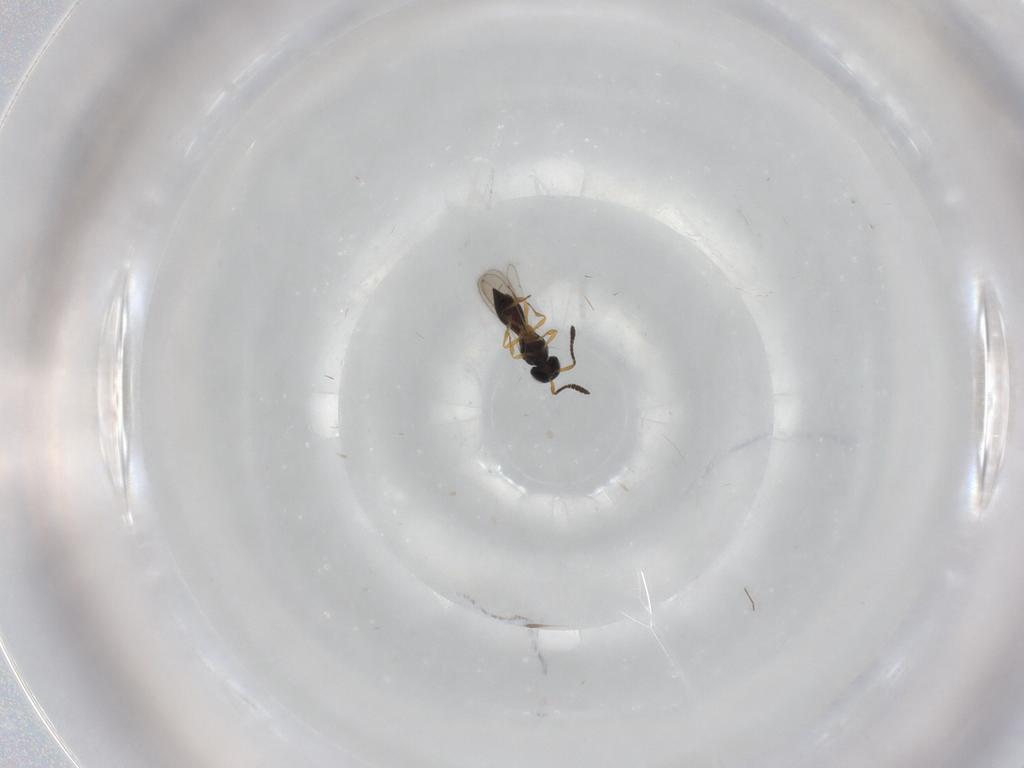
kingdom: Animalia
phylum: Arthropoda
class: Insecta
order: Hymenoptera
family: Scelionidae
